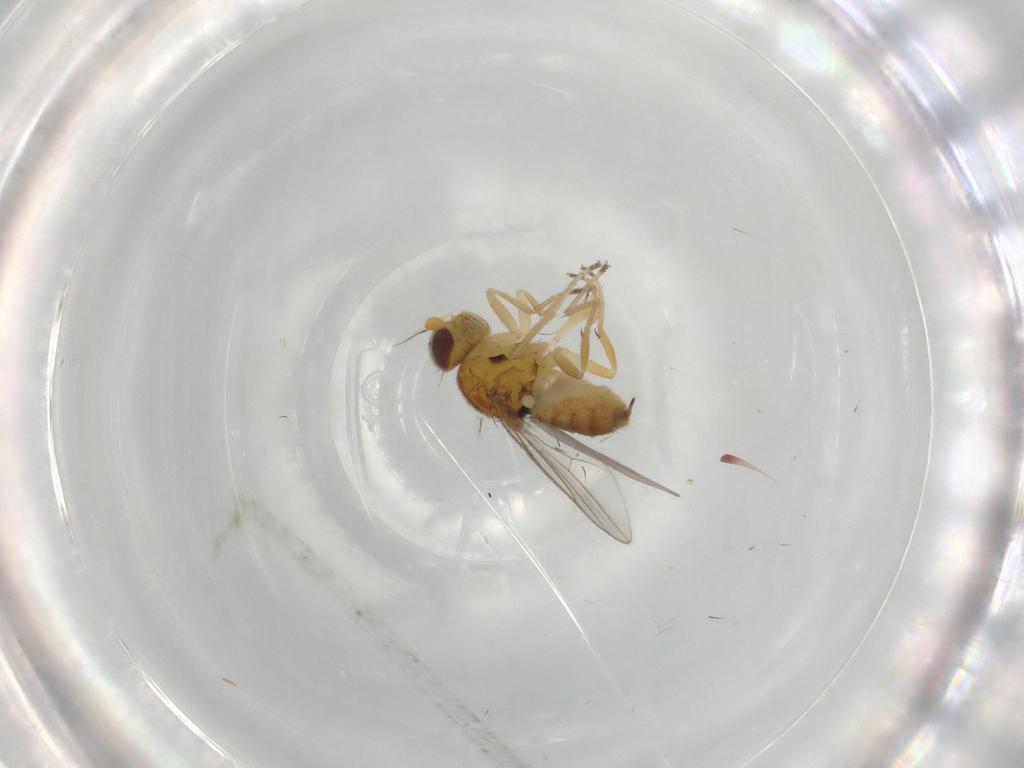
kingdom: Animalia
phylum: Arthropoda
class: Insecta
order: Diptera
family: Chloropidae
